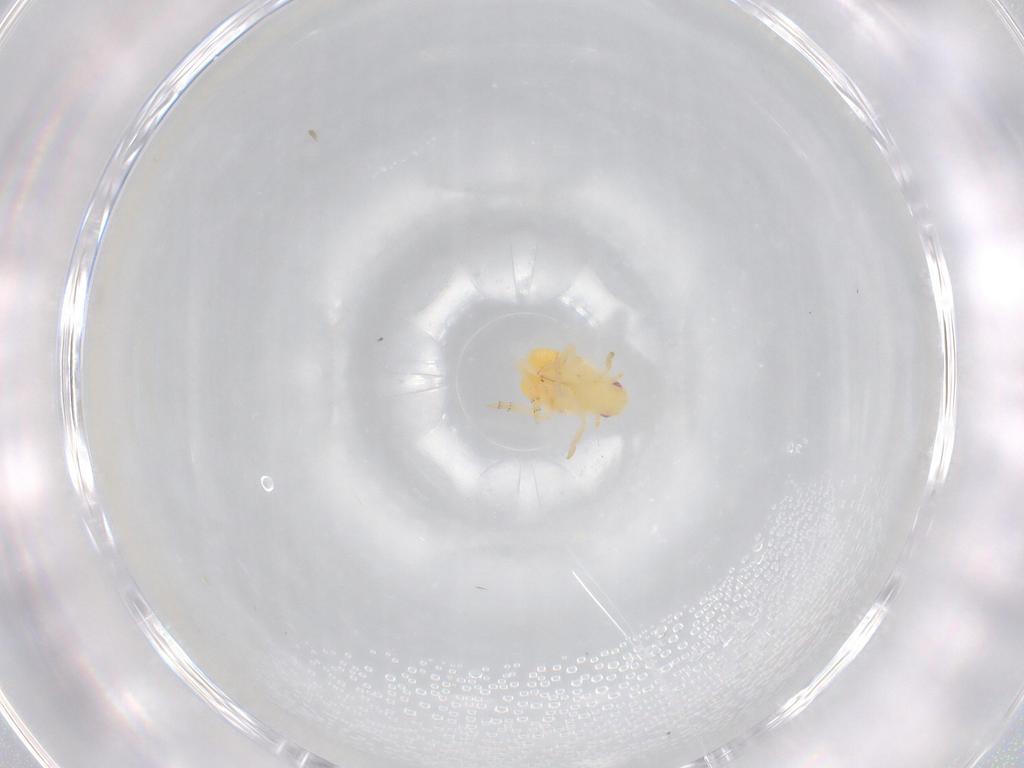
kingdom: Animalia
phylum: Arthropoda
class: Insecta
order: Hemiptera
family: Flatidae
